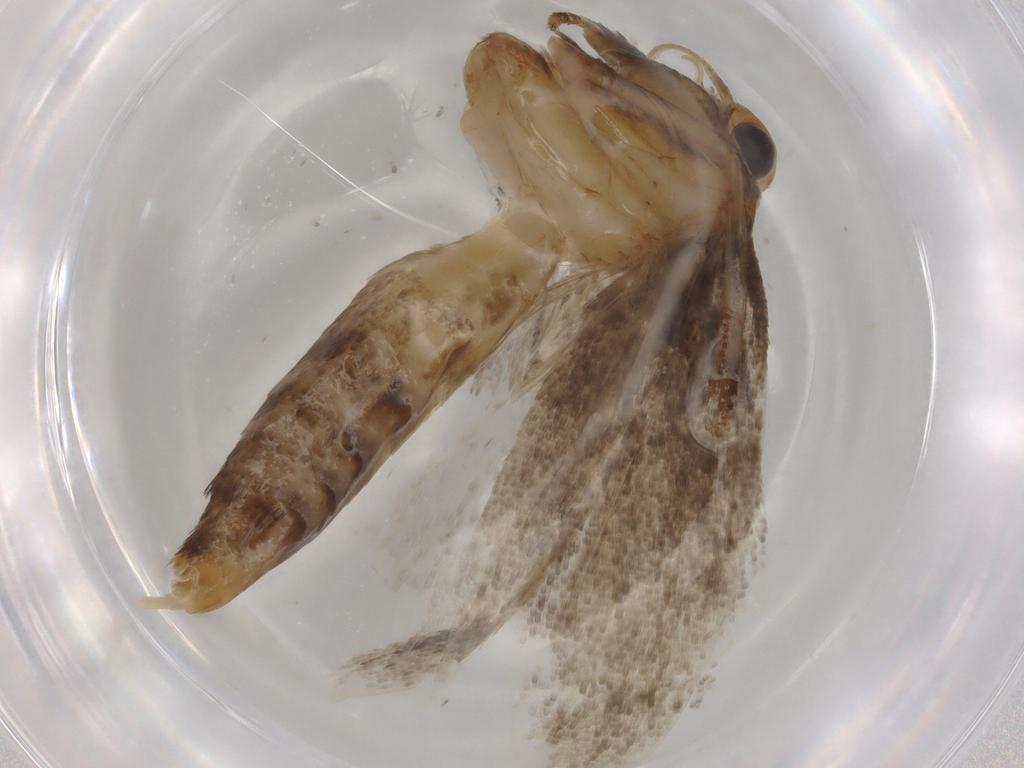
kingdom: Animalia
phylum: Arthropoda
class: Insecta
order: Lepidoptera
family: Oecophoridae
